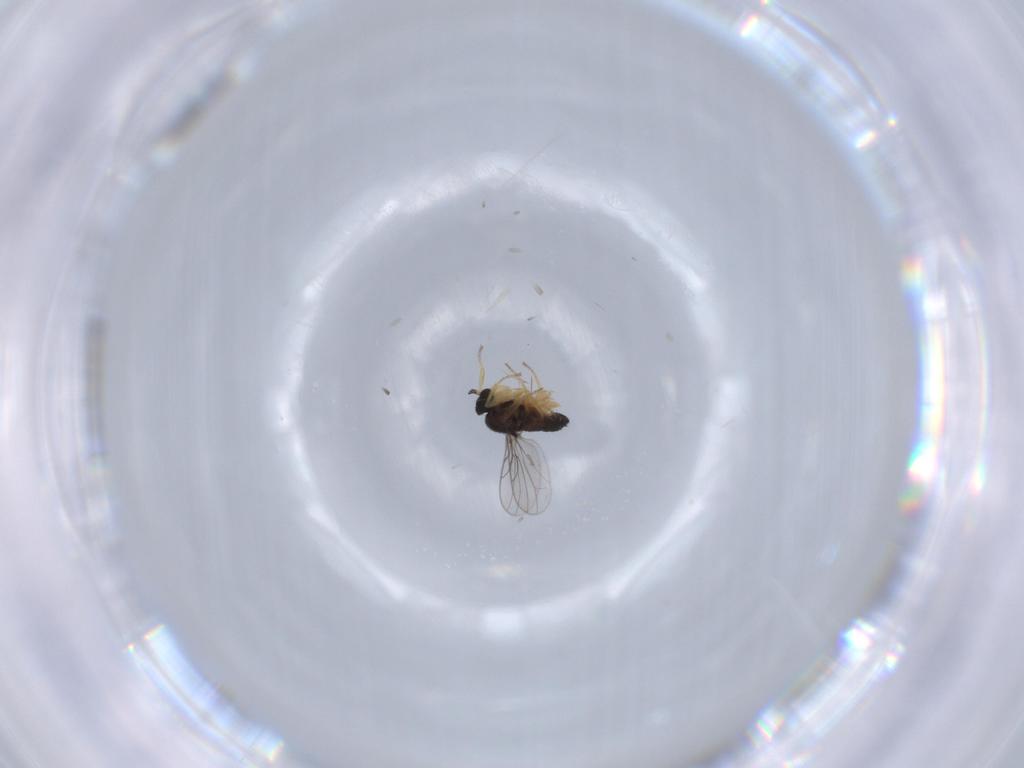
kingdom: Animalia
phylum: Arthropoda
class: Insecta
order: Diptera
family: Hybotidae
